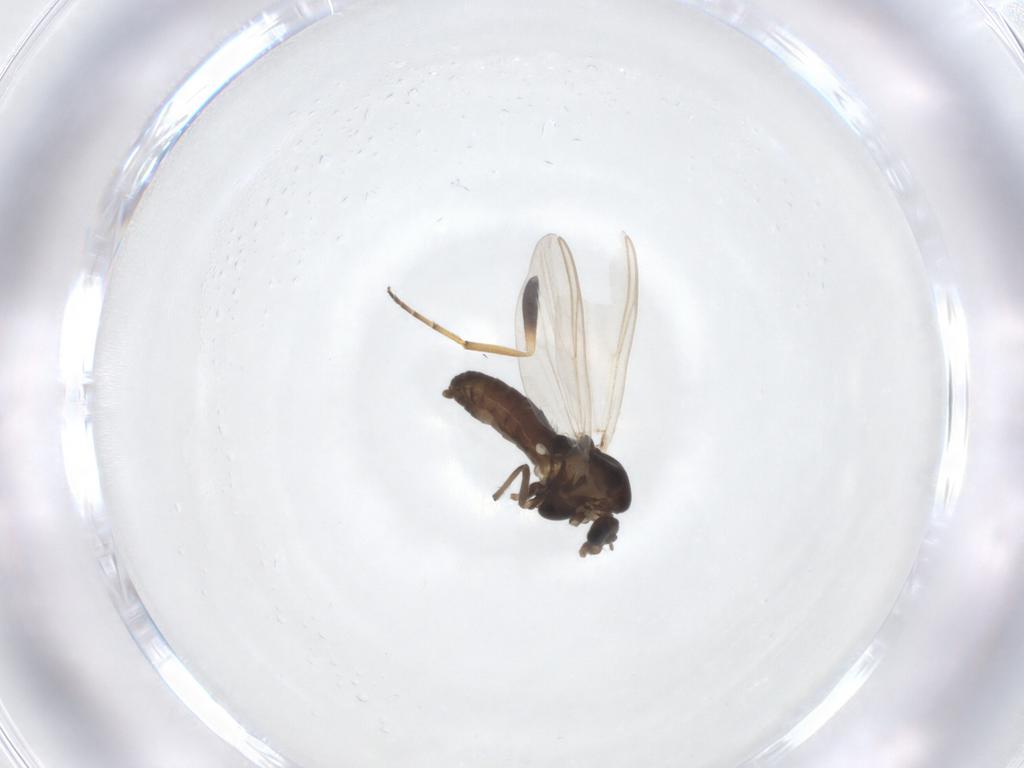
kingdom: Animalia
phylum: Arthropoda
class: Insecta
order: Diptera
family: Dolichopodidae
